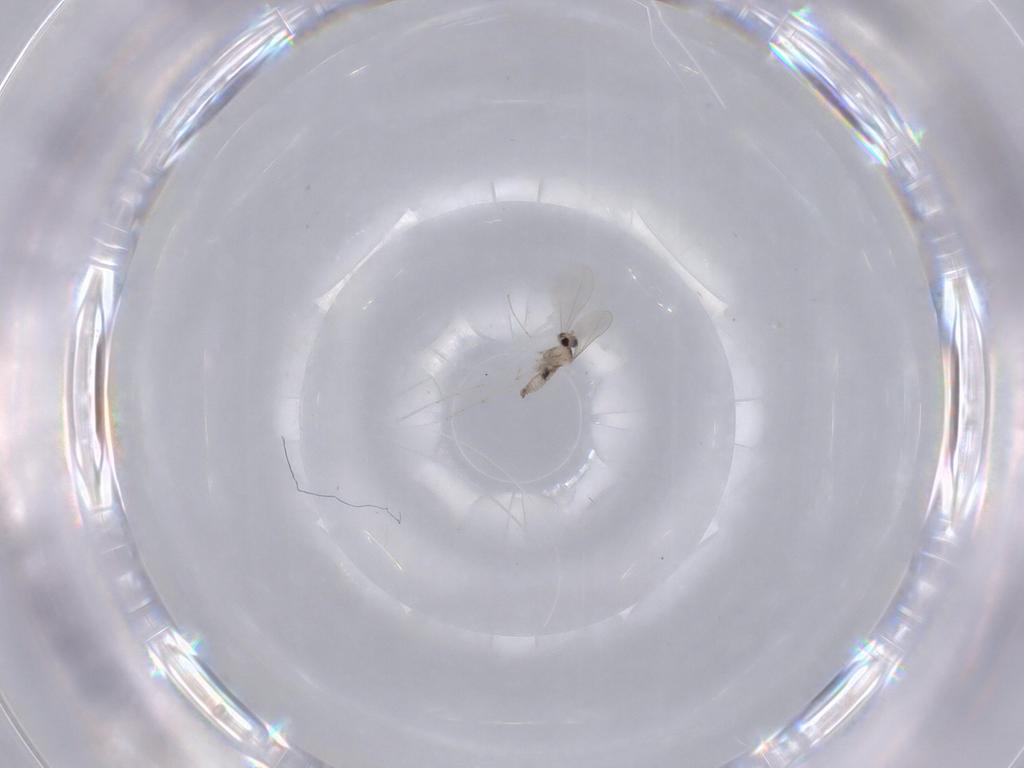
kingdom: Animalia
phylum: Arthropoda
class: Insecta
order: Diptera
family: Cecidomyiidae
